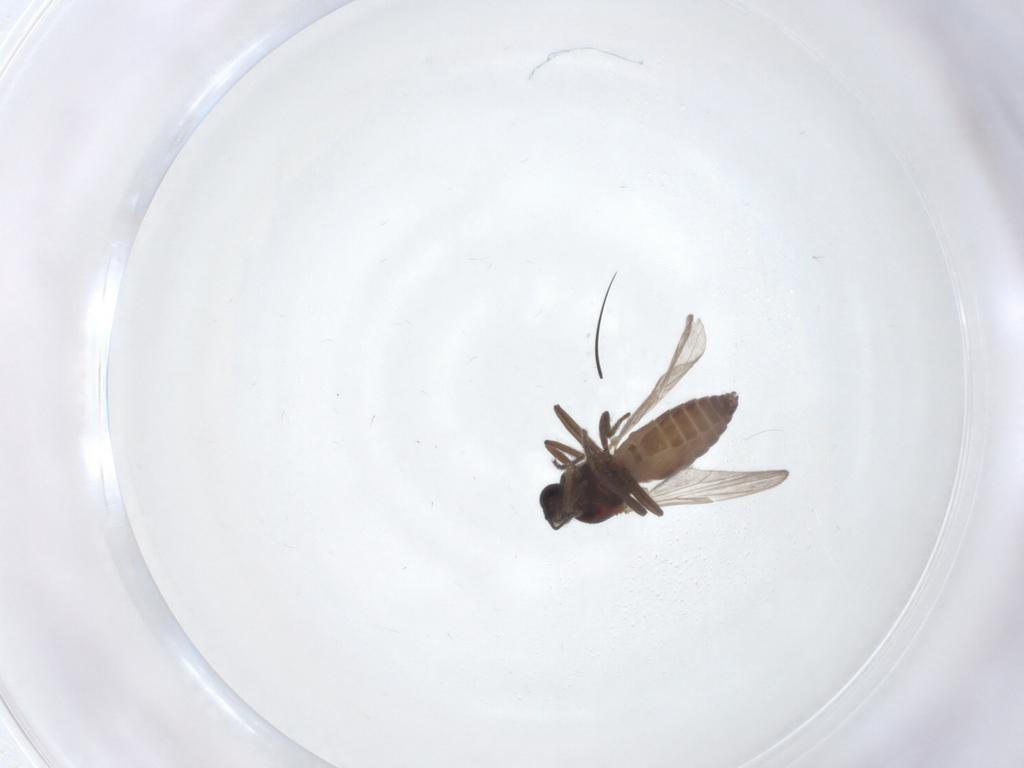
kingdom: Animalia
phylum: Arthropoda
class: Insecta
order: Diptera
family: Ceratopogonidae
